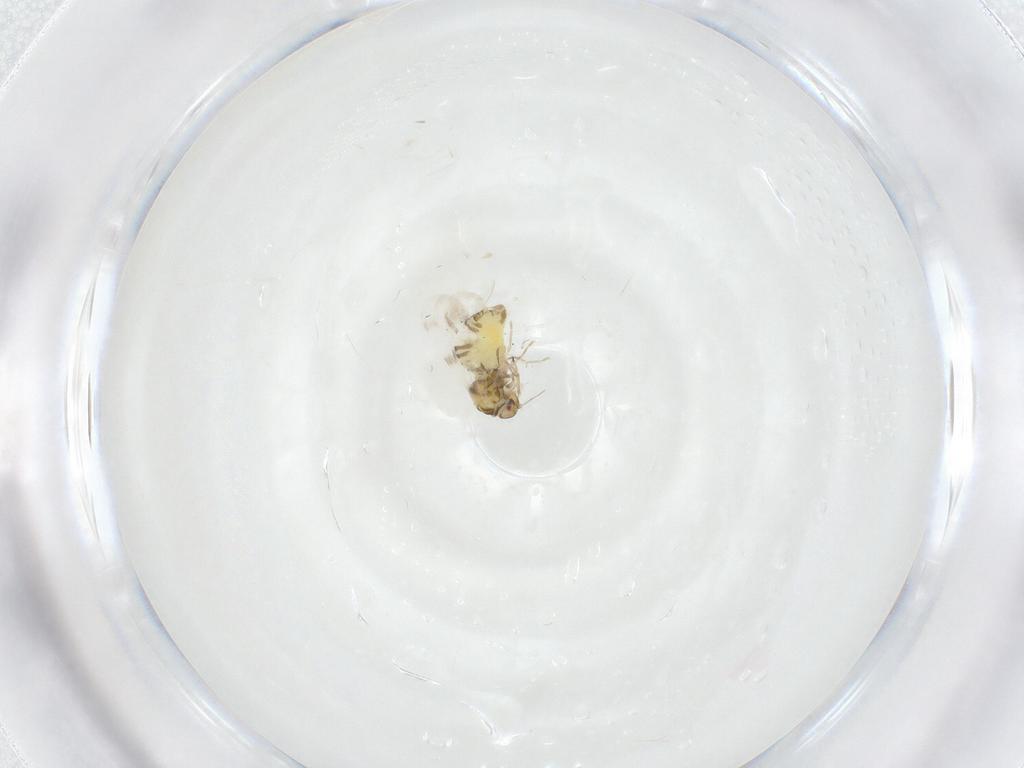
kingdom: Animalia
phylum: Arthropoda
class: Insecta
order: Hemiptera
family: Aleyrodidae
